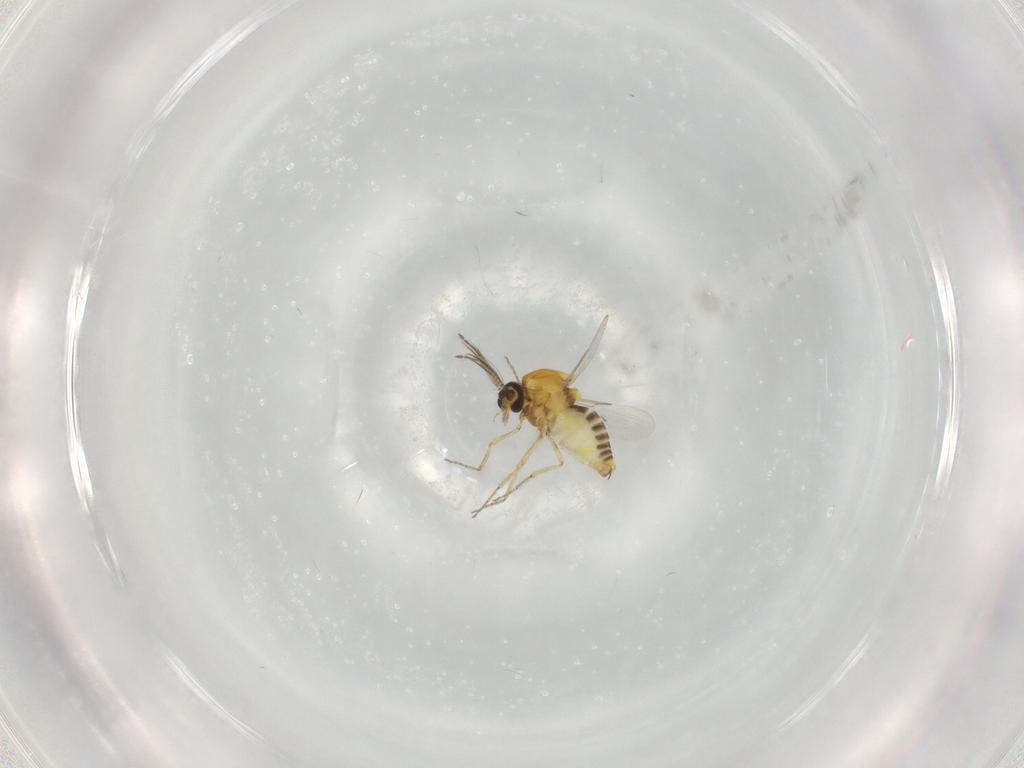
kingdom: Animalia
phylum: Arthropoda
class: Insecta
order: Diptera
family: Ceratopogonidae
